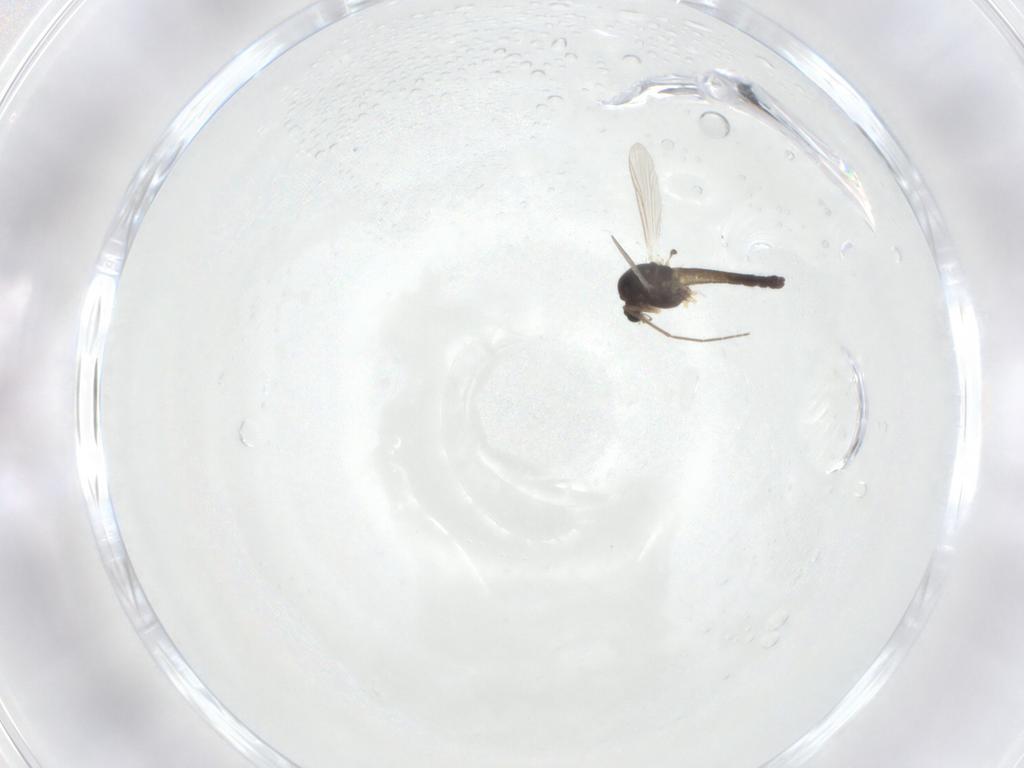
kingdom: Animalia
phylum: Arthropoda
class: Insecta
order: Diptera
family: Chironomidae
